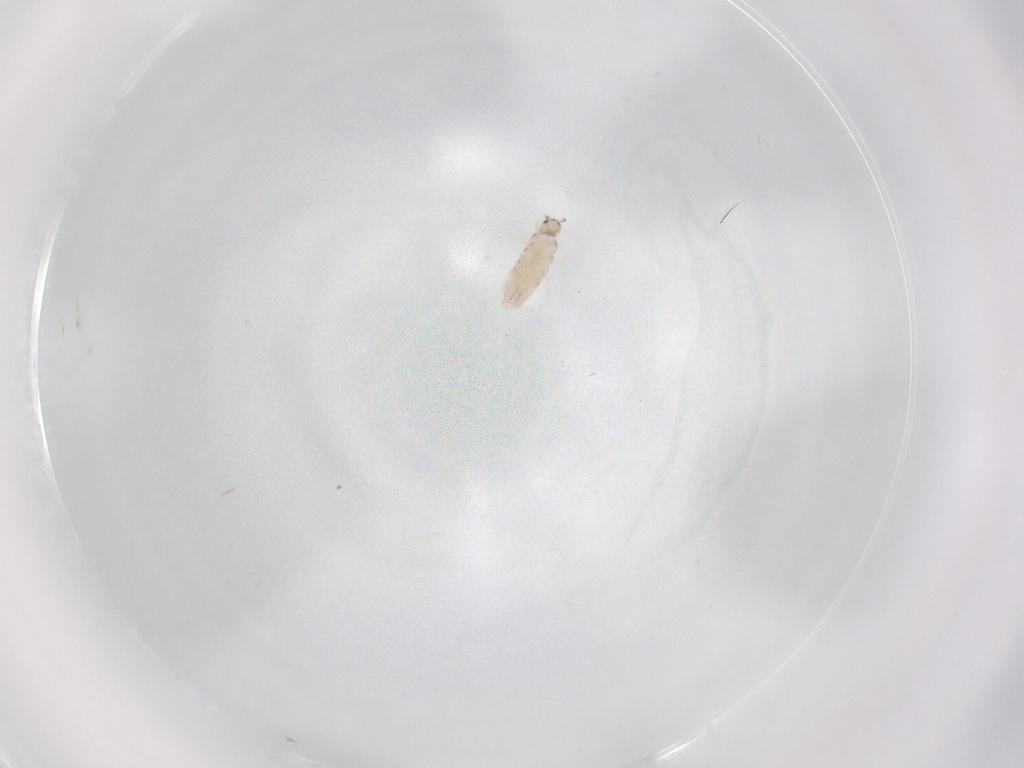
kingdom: Animalia
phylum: Arthropoda
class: Collembola
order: Entomobryomorpha
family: Entomobryidae
